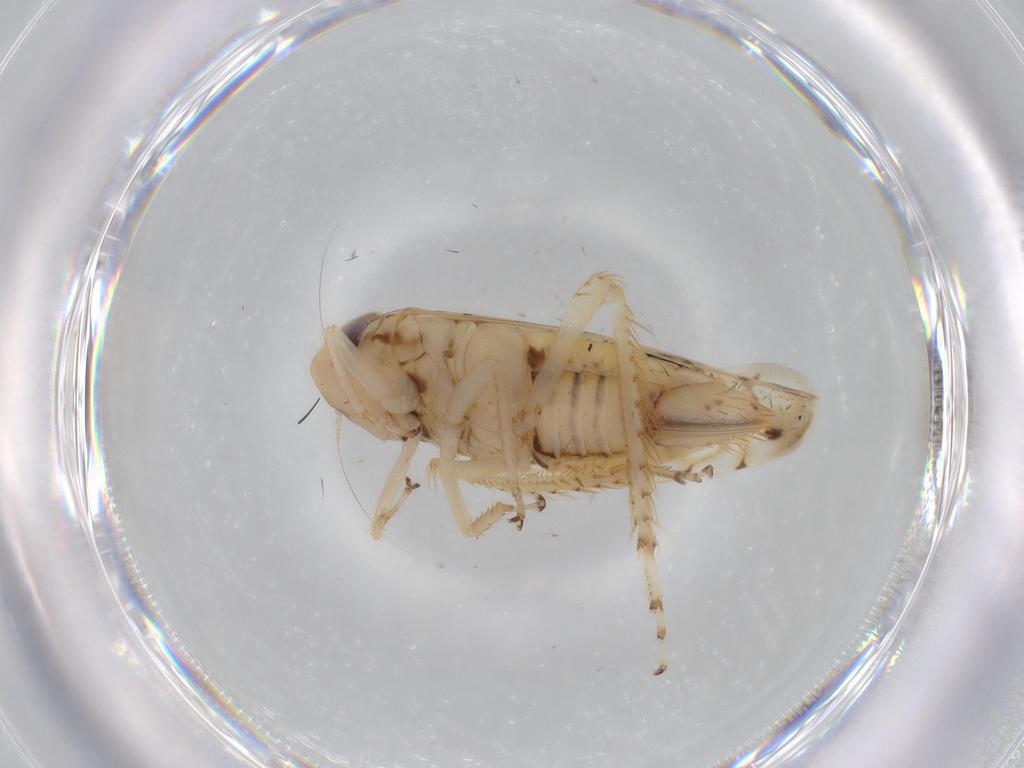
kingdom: Animalia
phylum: Arthropoda
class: Insecta
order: Hemiptera
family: Cicadellidae
